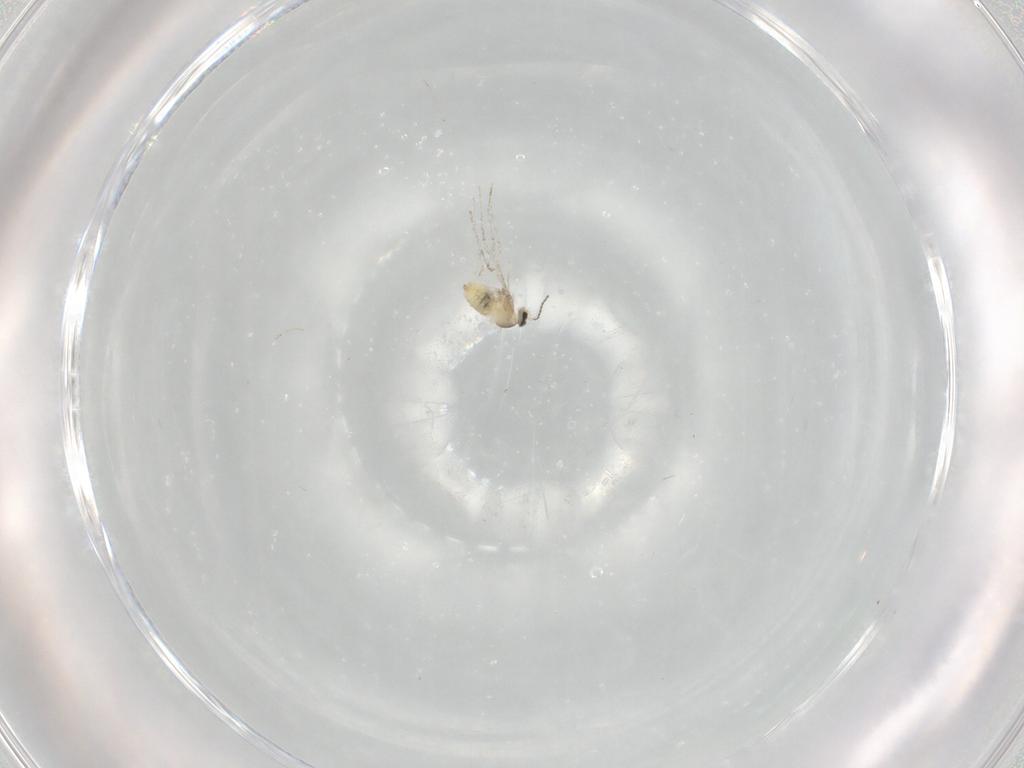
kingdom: Animalia
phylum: Arthropoda
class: Insecta
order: Diptera
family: Cecidomyiidae
